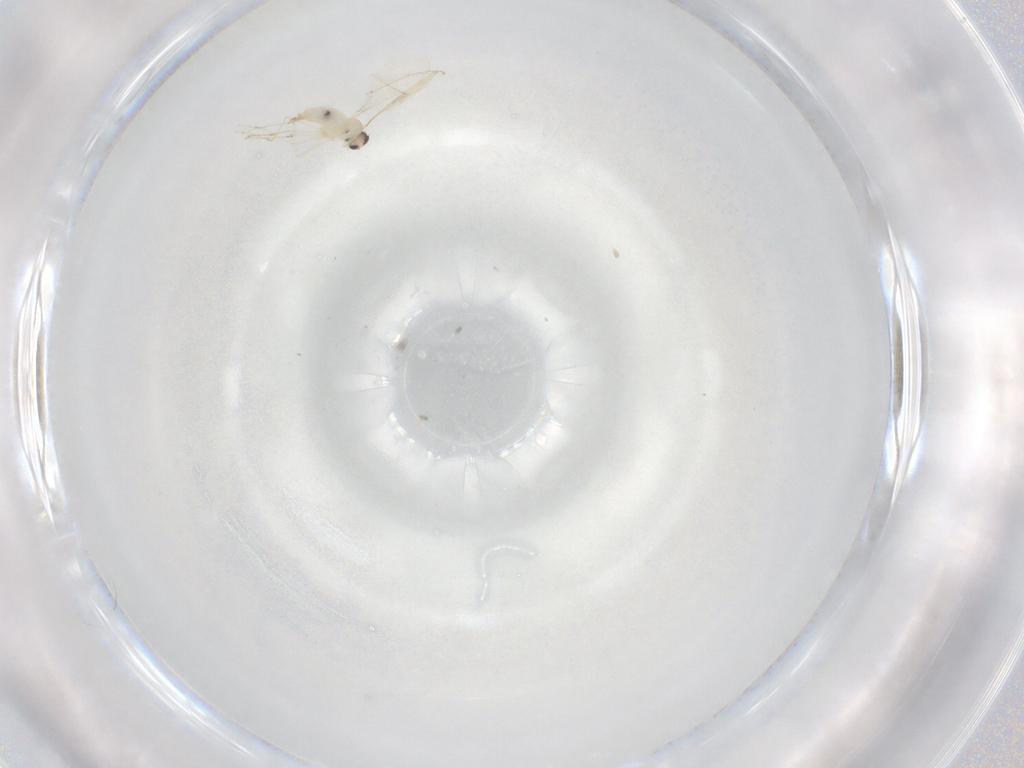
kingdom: Animalia
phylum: Arthropoda
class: Insecta
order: Diptera
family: Cecidomyiidae
